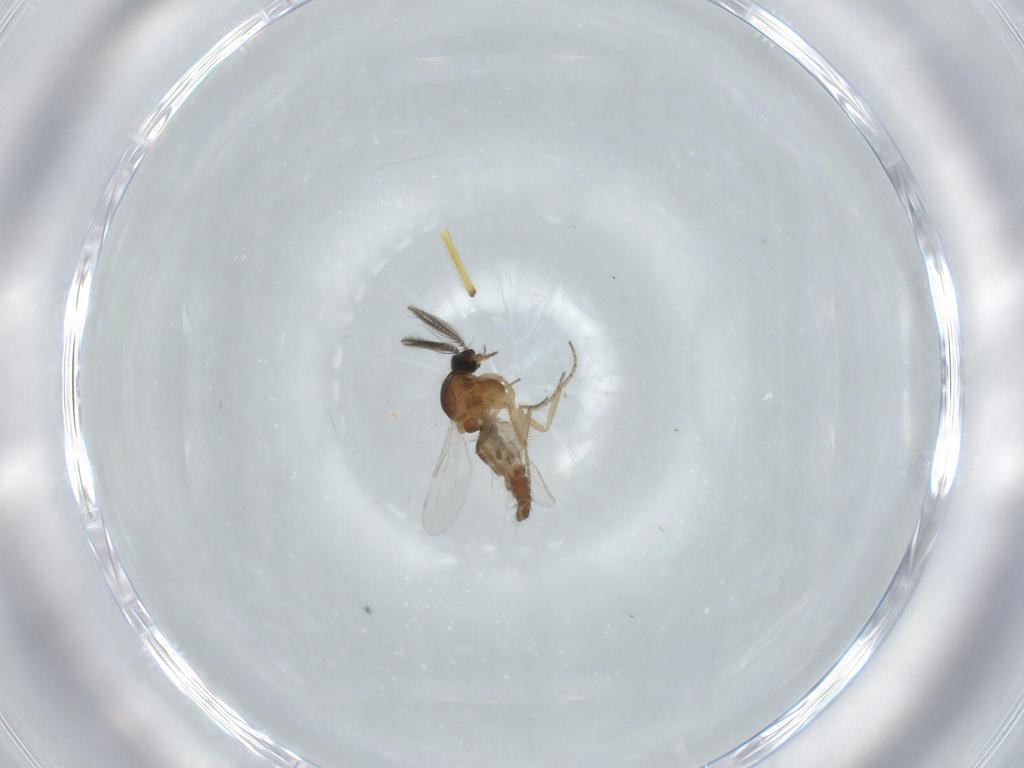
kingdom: Animalia
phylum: Arthropoda
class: Insecta
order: Diptera
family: Ceratopogonidae
